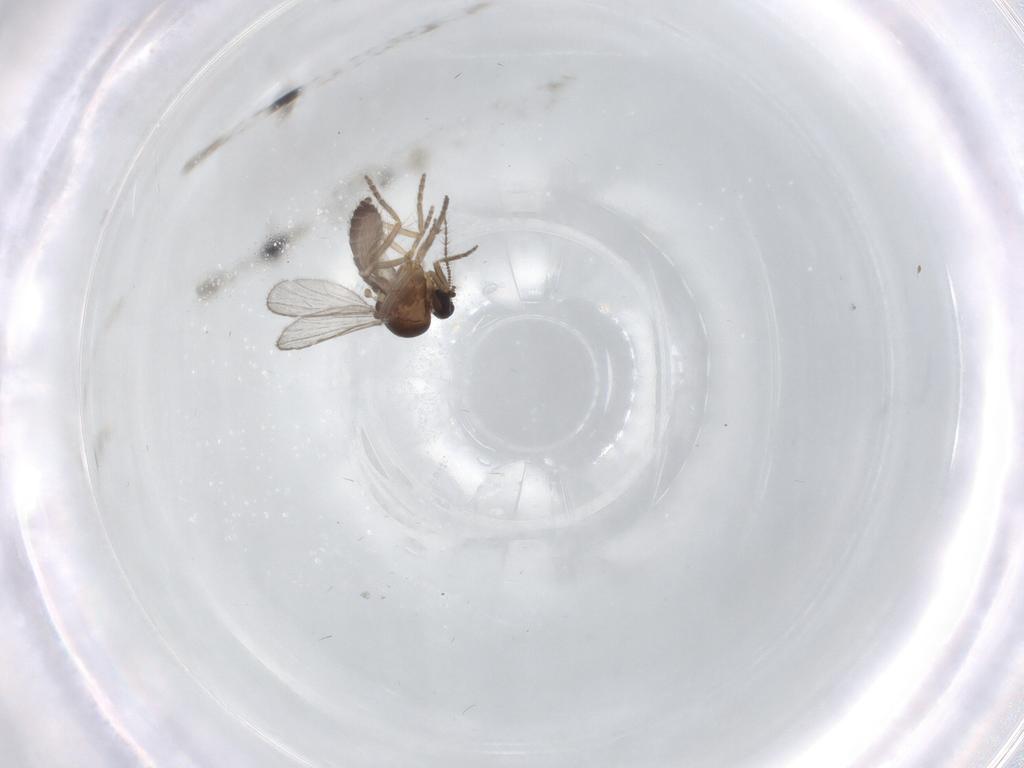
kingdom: Animalia
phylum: Arthropoda
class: Insecta
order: Diptera
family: Ceratopogonidae
